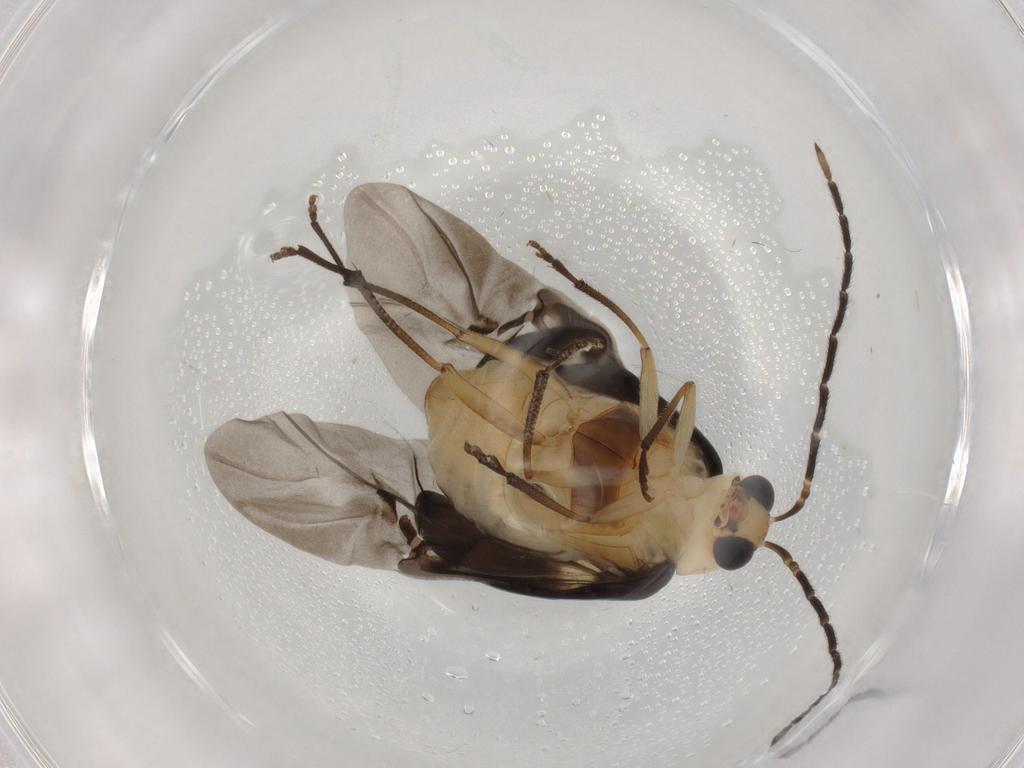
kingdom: Animalia
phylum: Arthropoda
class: Insecta
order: Coleoptera
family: Chrysomelidae
